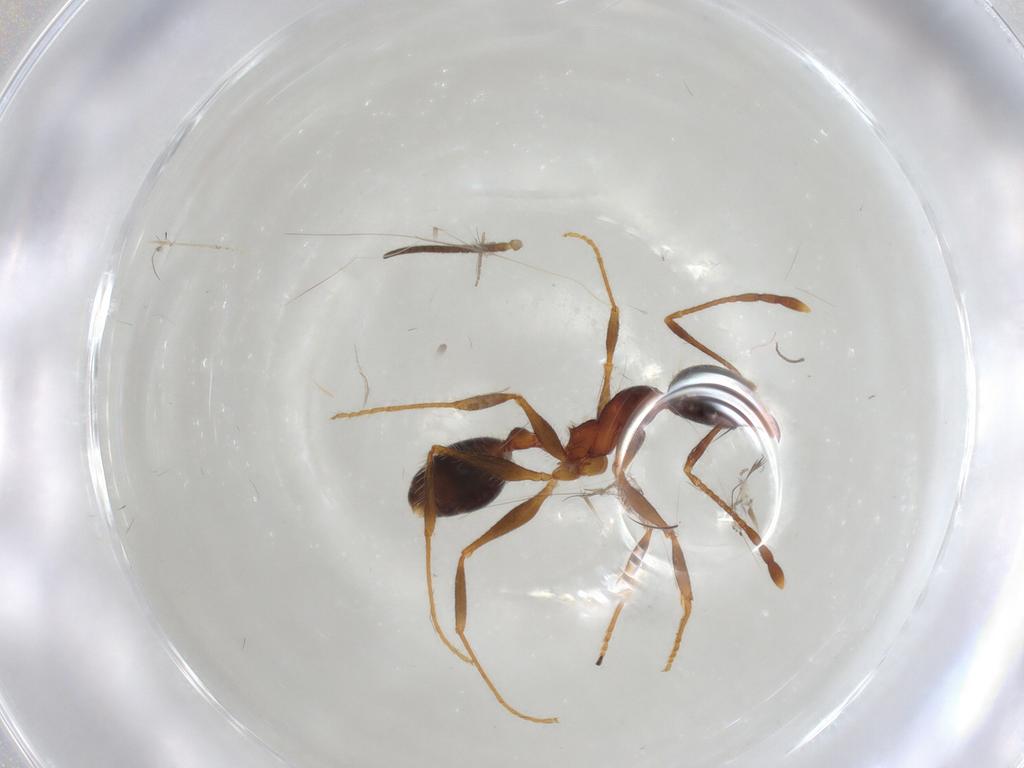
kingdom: Animalia
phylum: Arthropoda
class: Insecta
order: Hymenoptera
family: Formicidae
